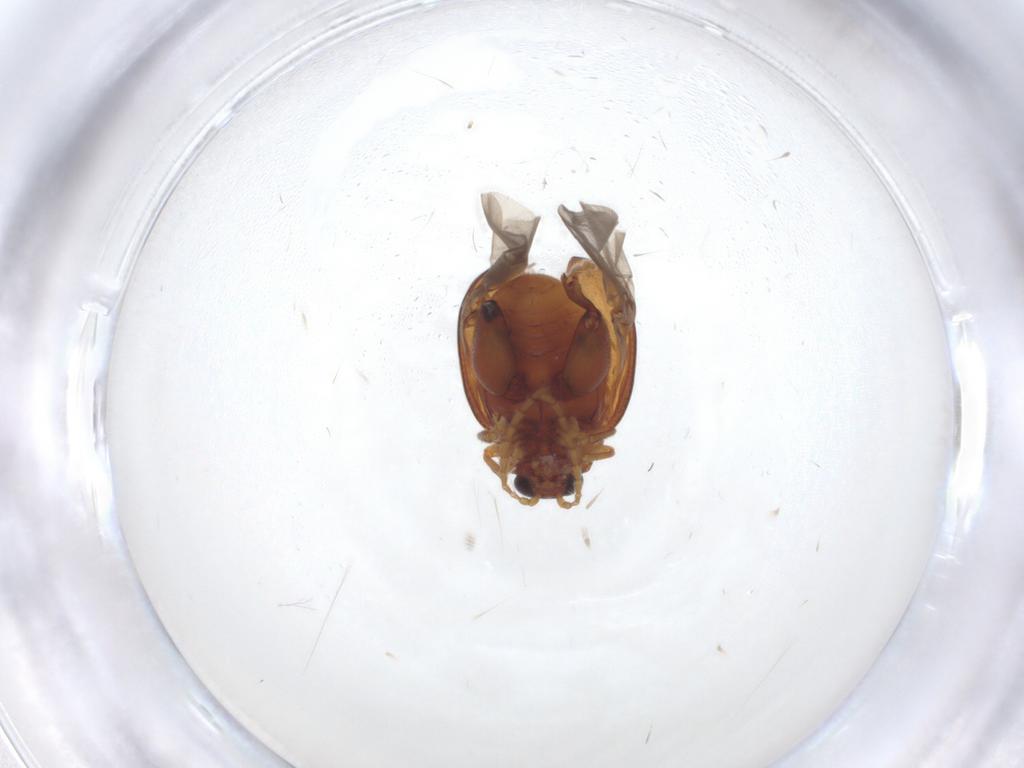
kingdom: Animalia
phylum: Arthropoda
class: Insecta
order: Coleoptera
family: Chrysomelidae
